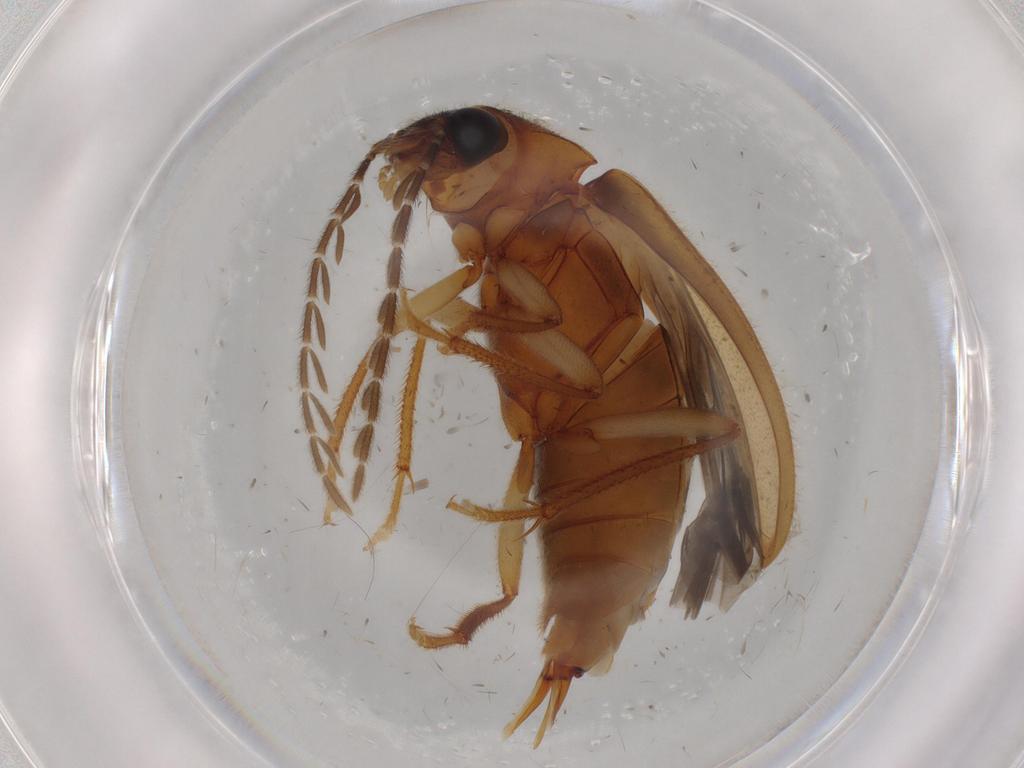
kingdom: Animalia
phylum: Arthropoda
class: Insecta
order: Coleoptera
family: Ptilodactylidae
